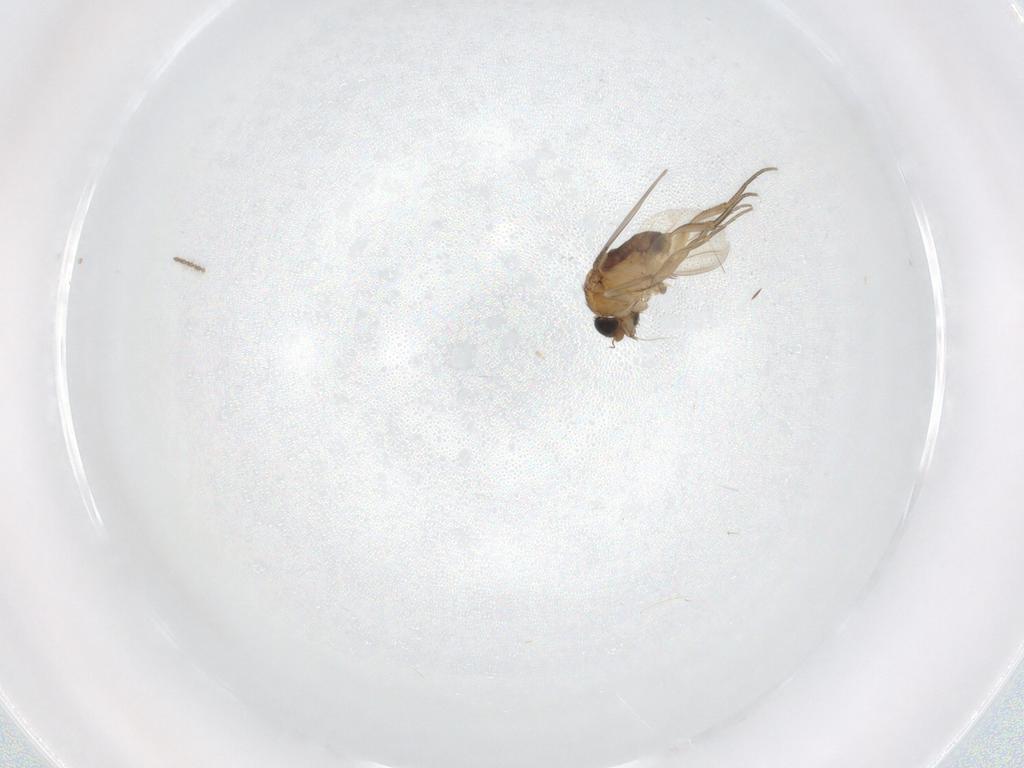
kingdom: Animalia
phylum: Arthropoda
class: Insecta
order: Diptera
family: Phoridae
